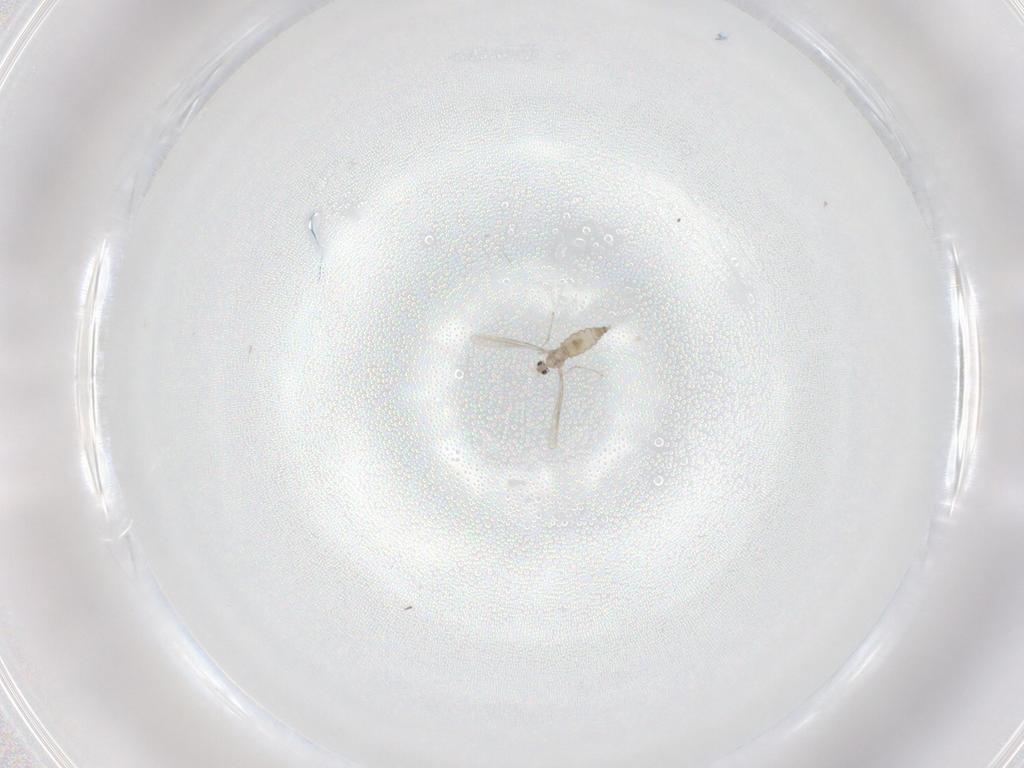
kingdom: Animalia
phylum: Arthropoda
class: Insecta
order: Diptera
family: Cecidomyiidae
